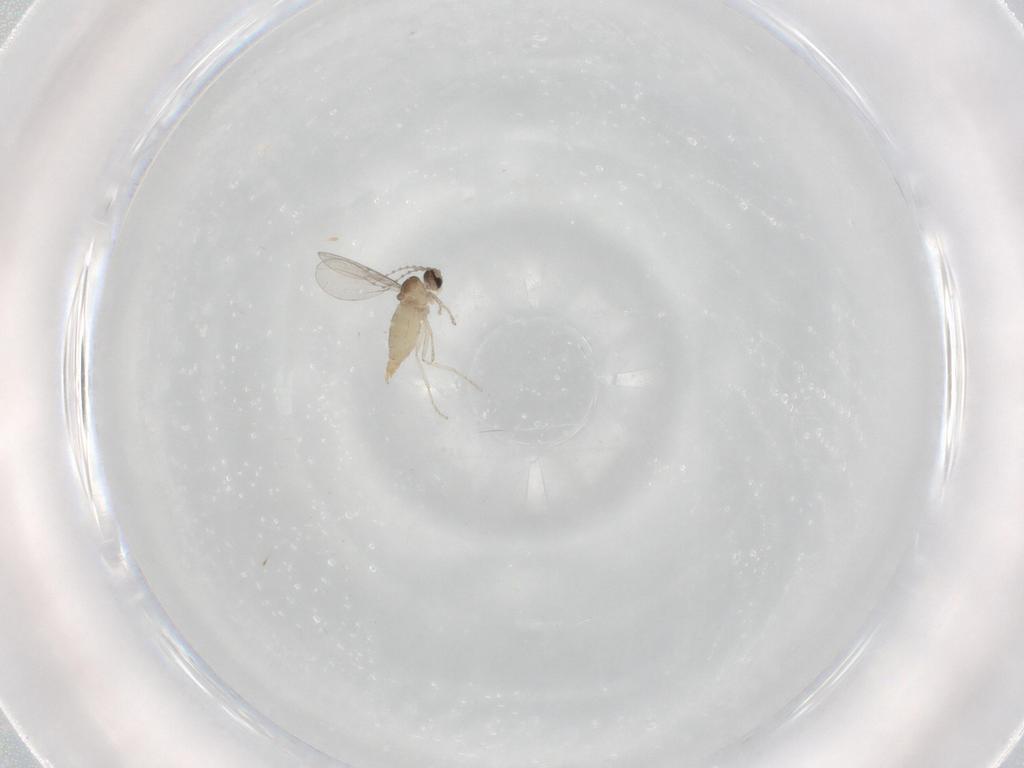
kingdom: Animalia
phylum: Arthropoda
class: Insecta
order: Diptera
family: Cecidomyiidae
